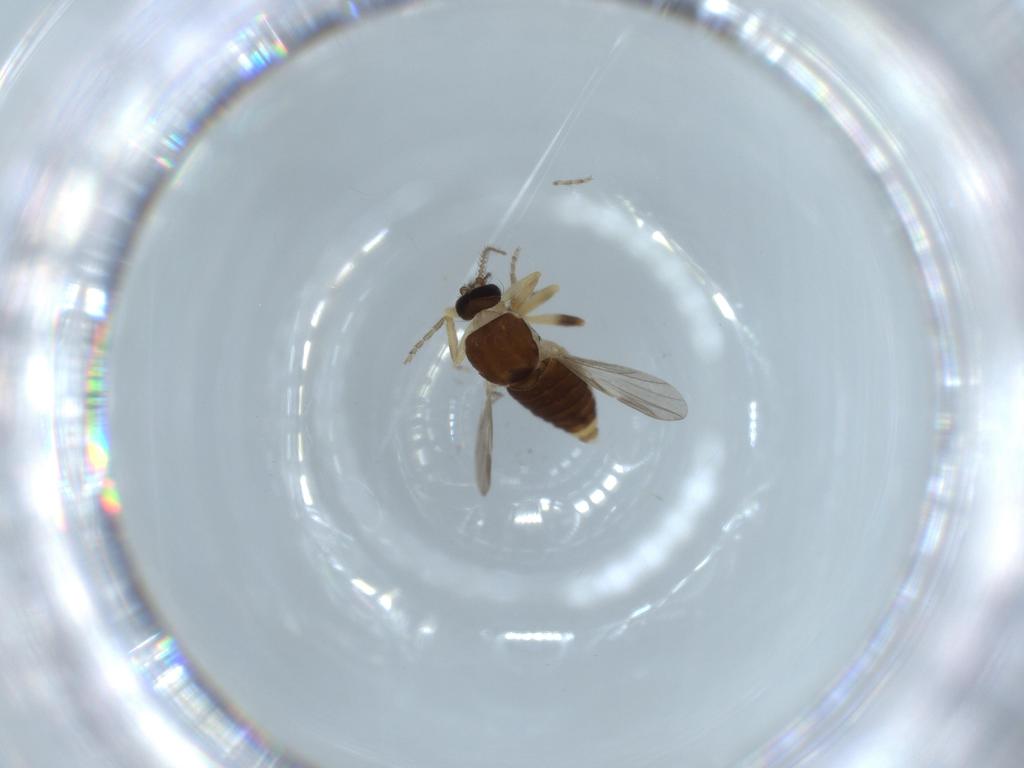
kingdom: Animalia
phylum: Arthropoda
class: Insecta
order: Diptera
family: Ceratopogonidae
